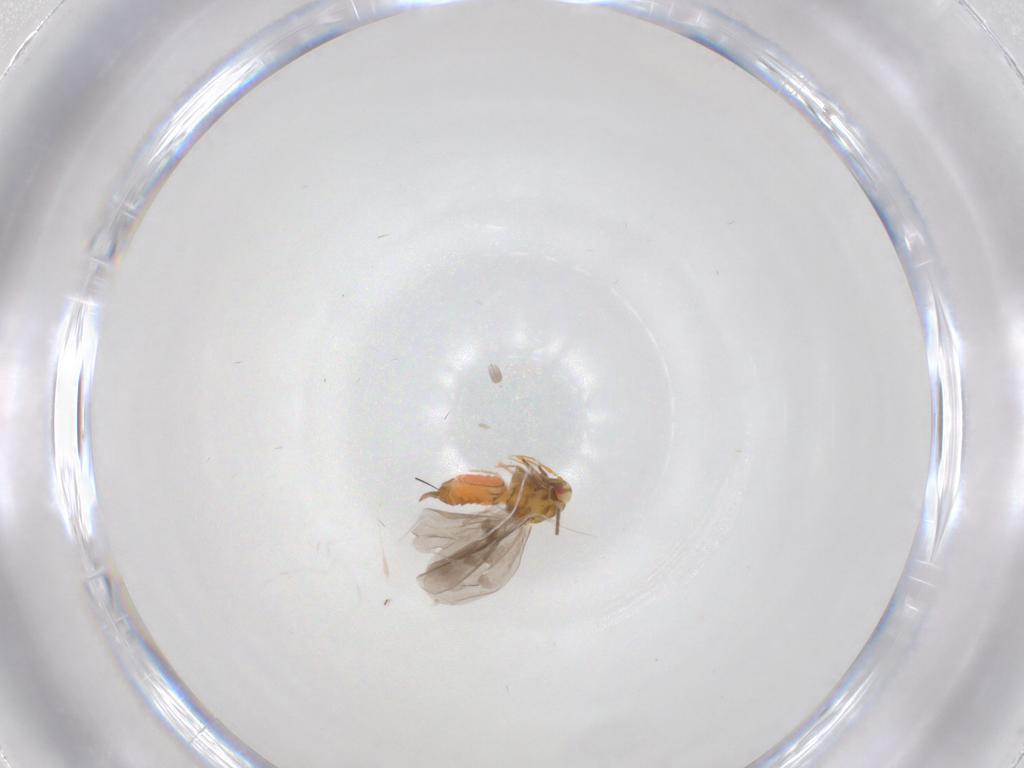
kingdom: Animalia
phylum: Arthropoda
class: Insecta
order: Hemiptera
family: Aleyrodidae
